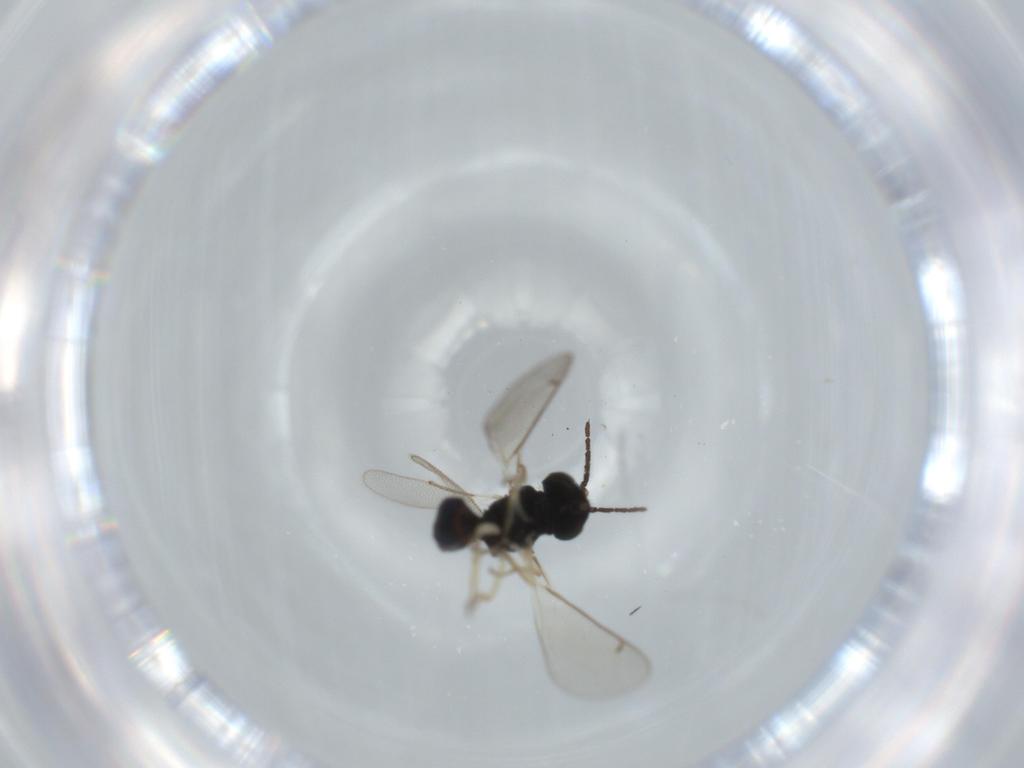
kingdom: Animalia
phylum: Arthropoda
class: Insecta
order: Hymenoptera
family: Eulophidae
